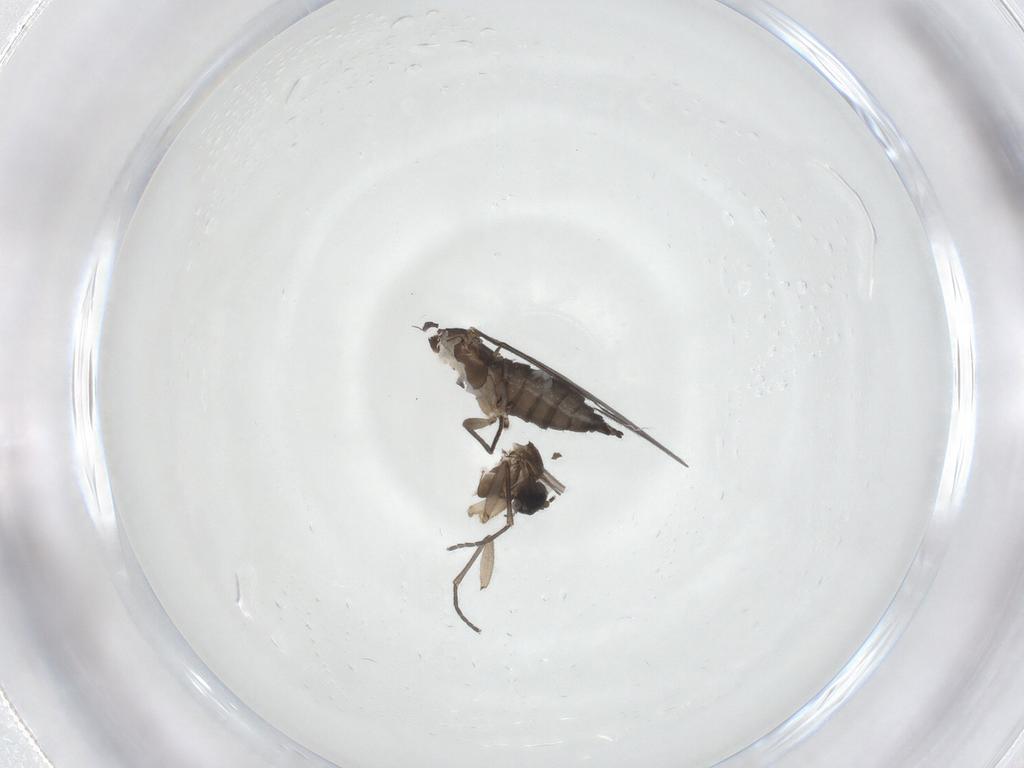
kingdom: Animalia
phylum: Arthropoda
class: Insecta
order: Diptera
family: Sciaridae
